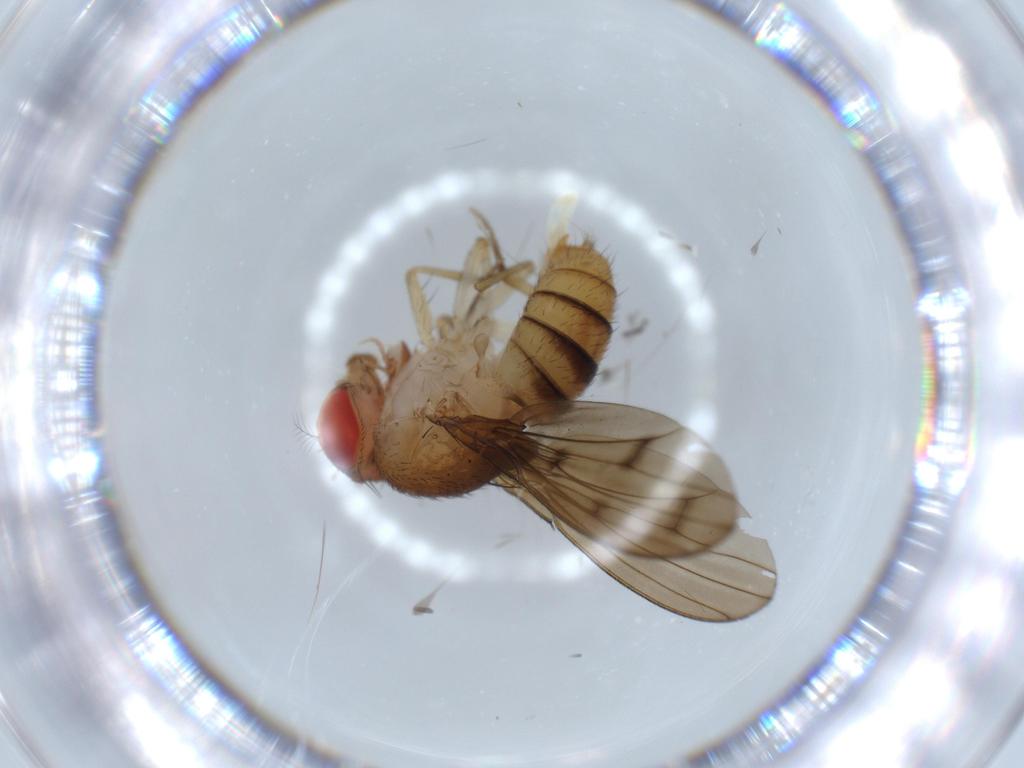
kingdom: Animalia
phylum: Arthropoda
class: Insecta
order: Diptera
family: Drosophilidae
